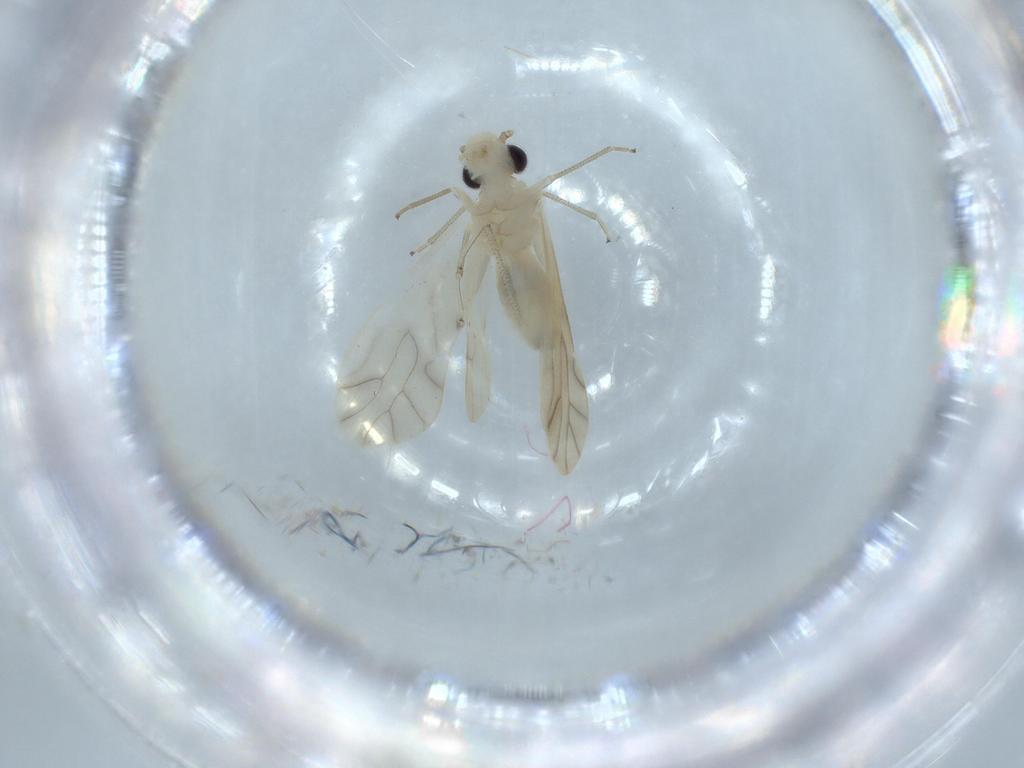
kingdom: Animalia
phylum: Arthropoda
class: Insecta
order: Psocodea
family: Caeciliusidae
